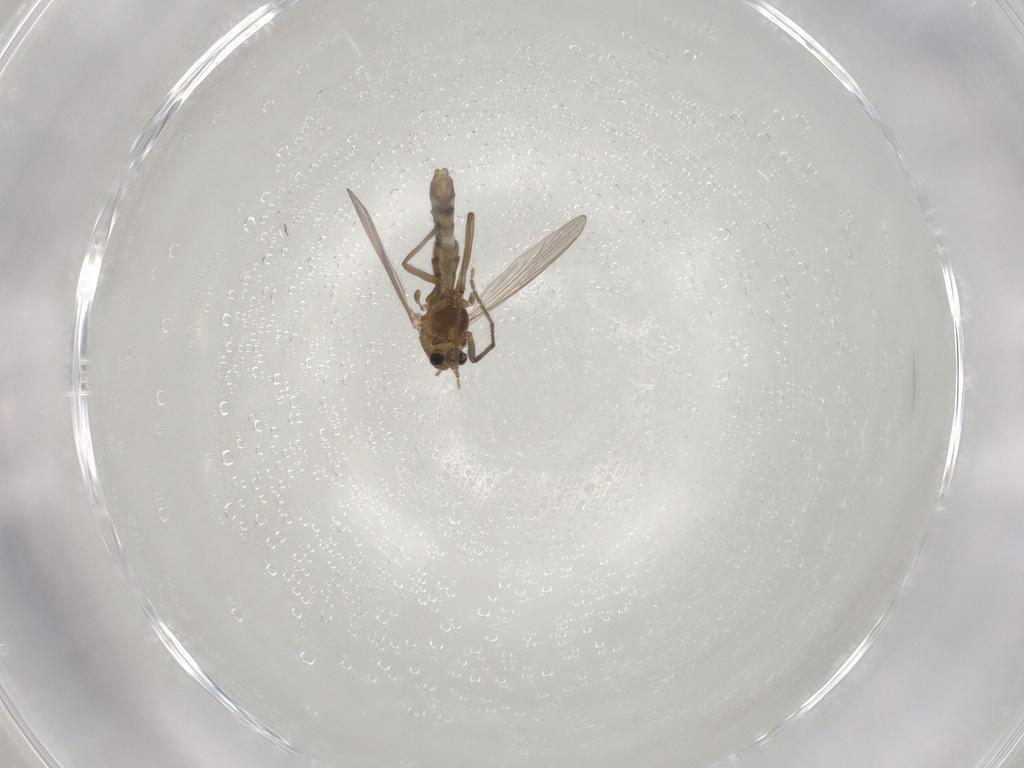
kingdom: Animalia
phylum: Arthropoda
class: Insecta
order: Diptera
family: Chironomidae
